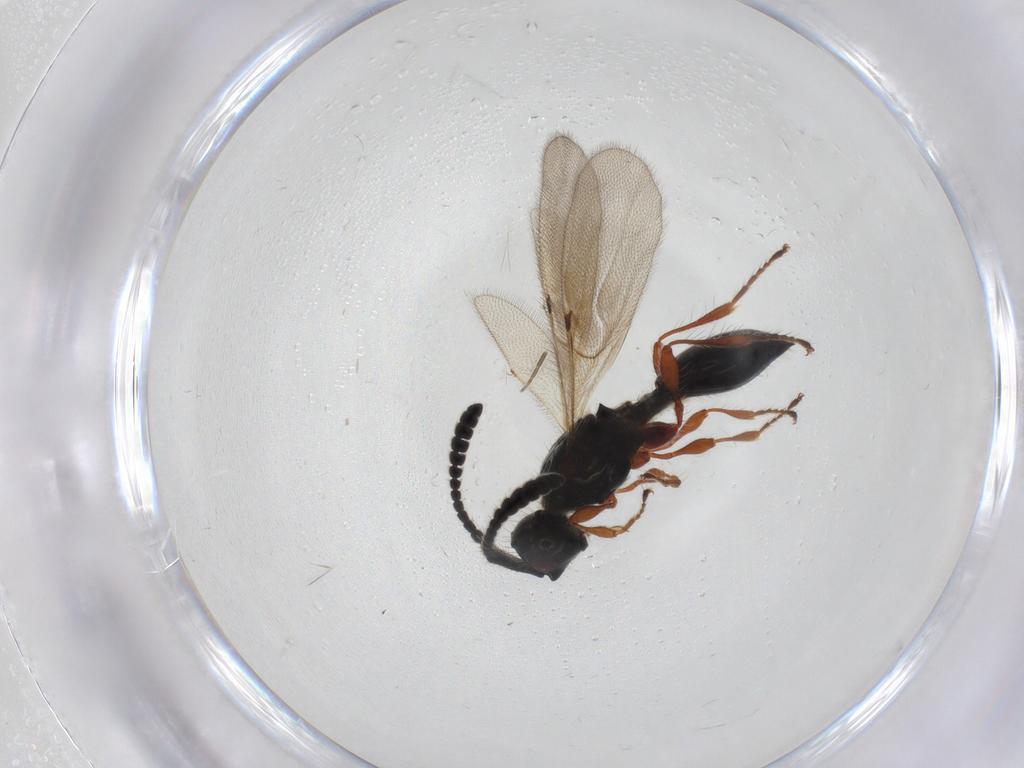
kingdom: Animalia
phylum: Arthropoda
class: Insecta
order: Hymenoptera
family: Diapriidae
